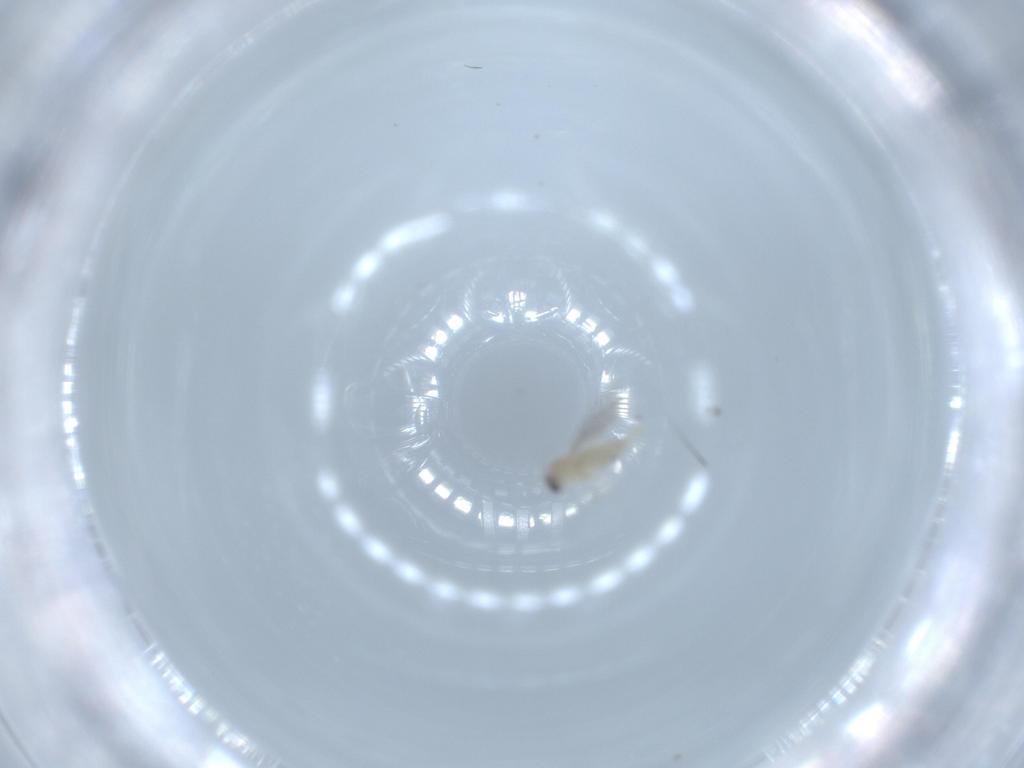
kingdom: Animalia
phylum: Arthropoda
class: Insecta
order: Diptera
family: Cecidomyiidae
